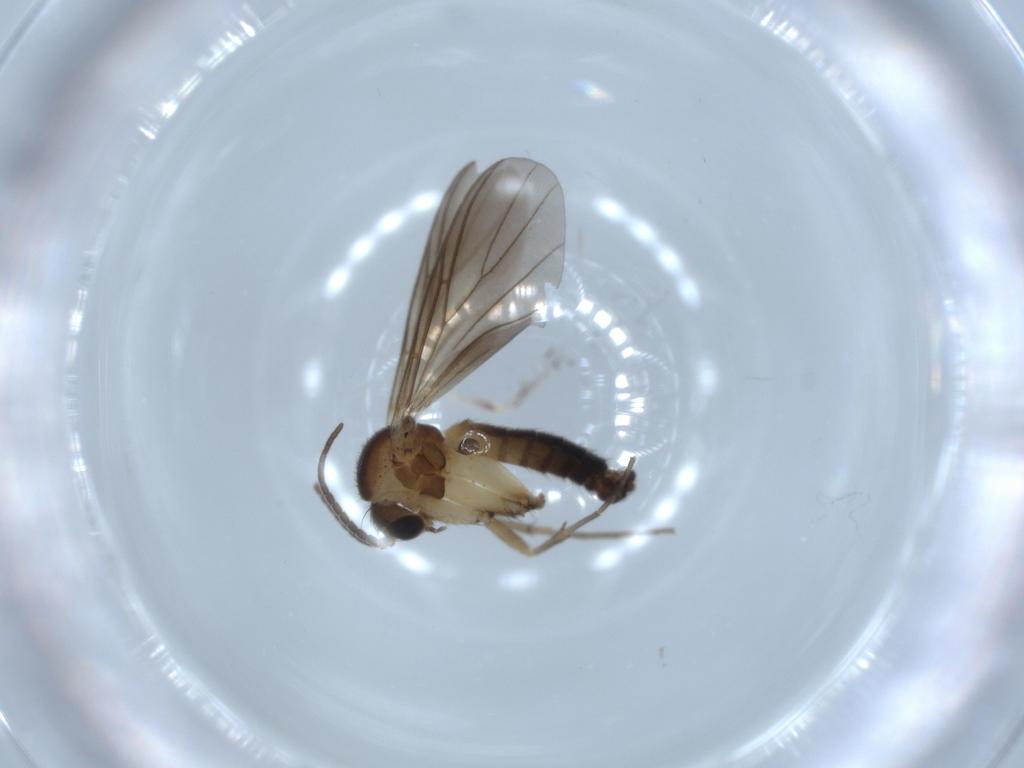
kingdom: Animalia
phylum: Arthropoda
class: Insecta
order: Diptera
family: Mycetophilidae
